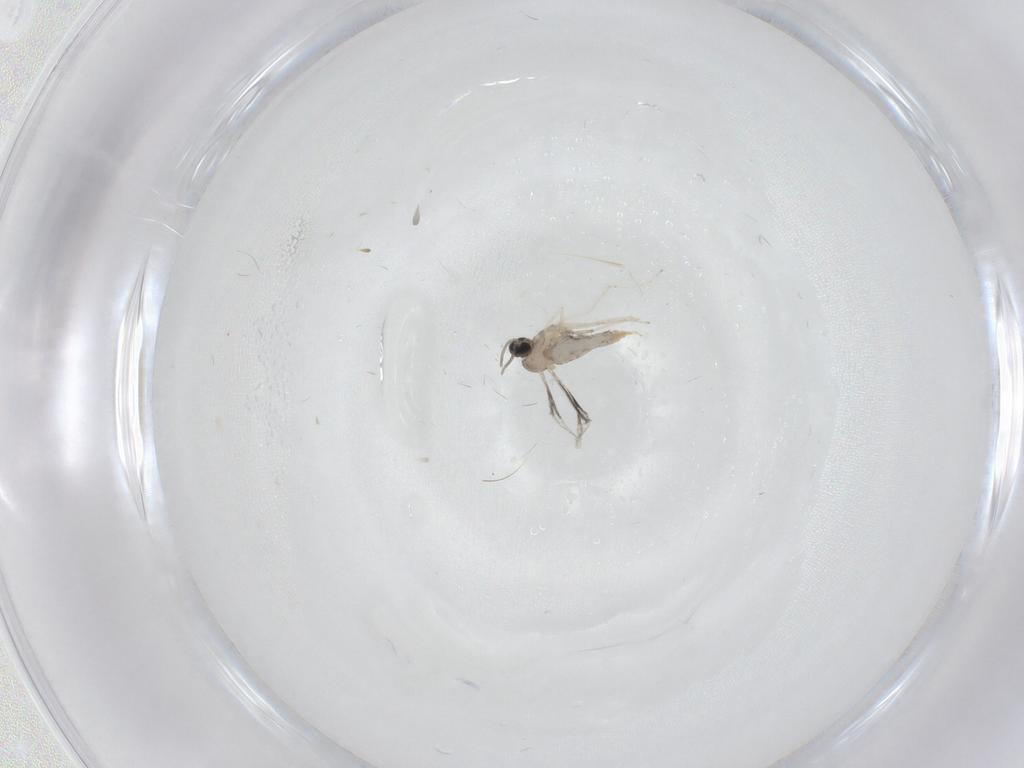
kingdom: Animalia
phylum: Arthropoda
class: Insecta
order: Diptera
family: Cecidomyiidae
